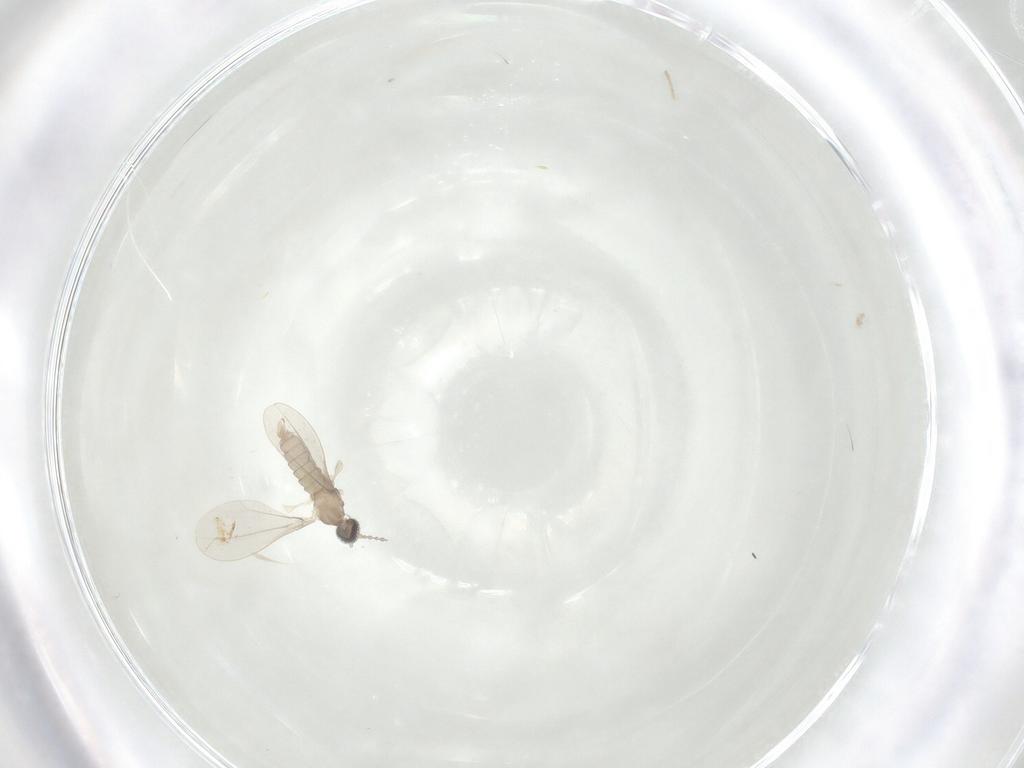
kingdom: Animalia
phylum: Arthropoda
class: Insecta
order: Diptera
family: Cecidomyiidae
